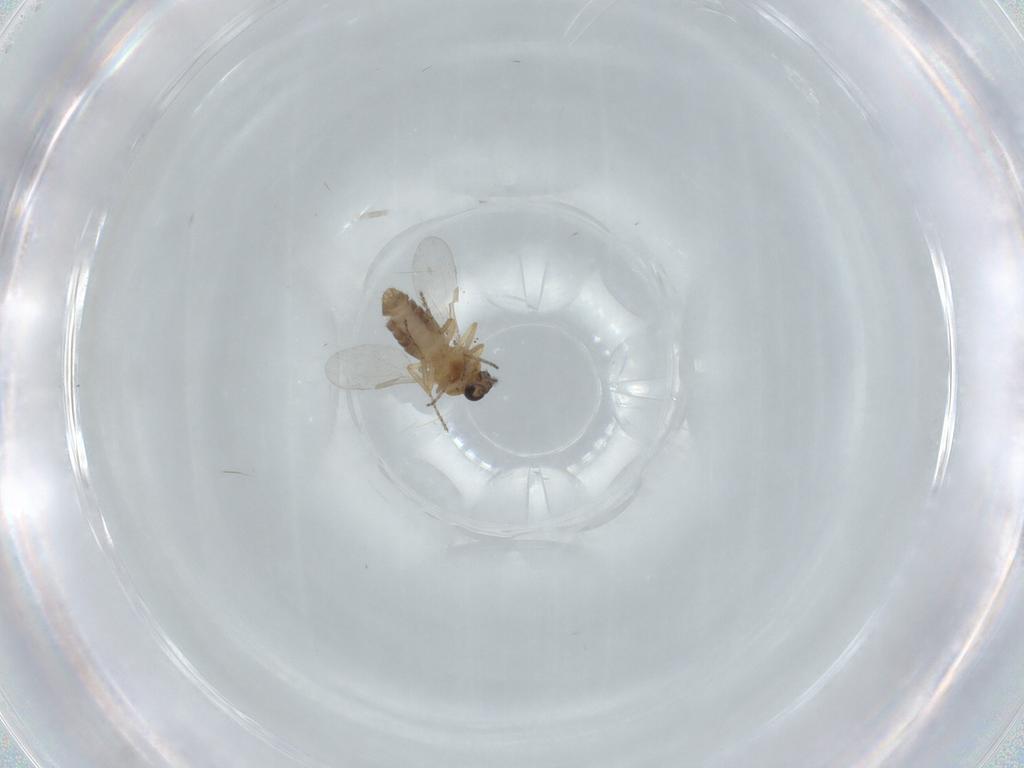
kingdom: Animalia
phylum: Arthropoda
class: Insecta
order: Diptera
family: Ceratopogonidae
